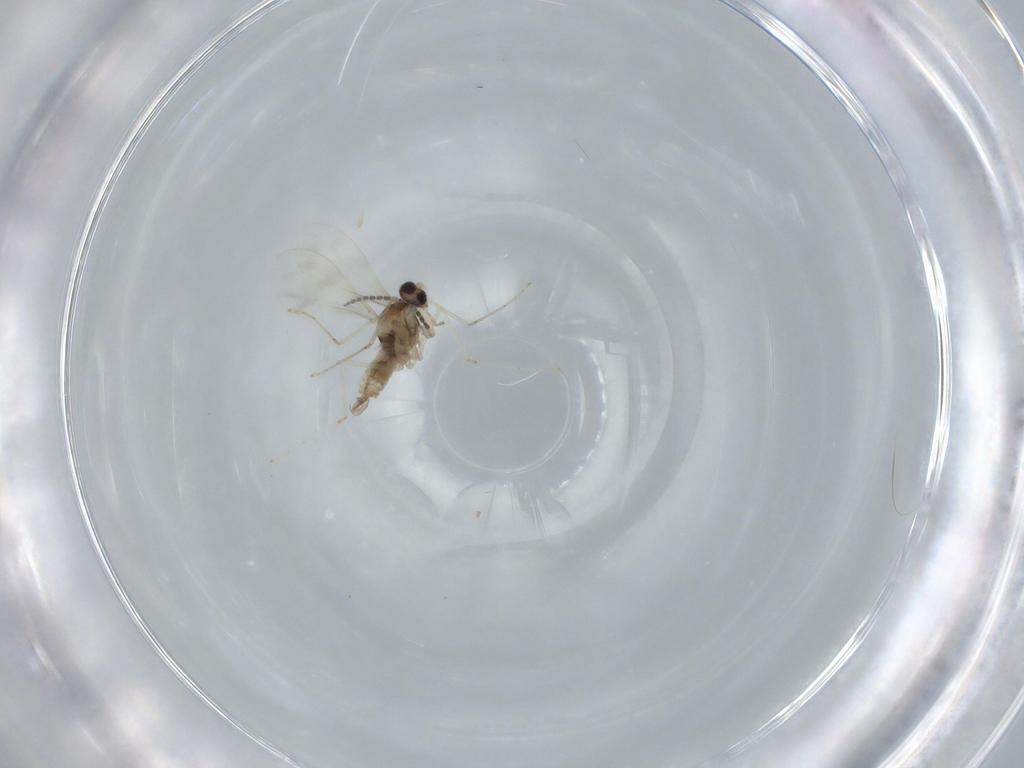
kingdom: Animalia
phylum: Arthropoda
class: Insecta
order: Diptera
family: Cecidomyiidae
